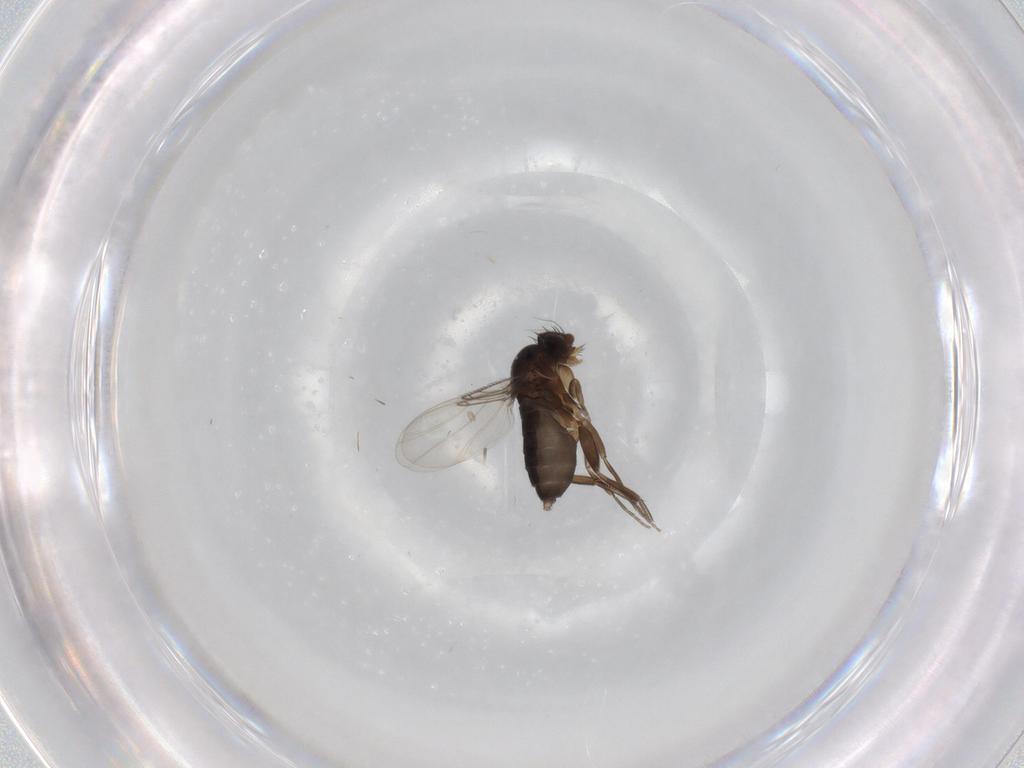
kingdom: Animalia
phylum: Arthropoda
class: Insecta
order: Diptera
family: Phoridae
